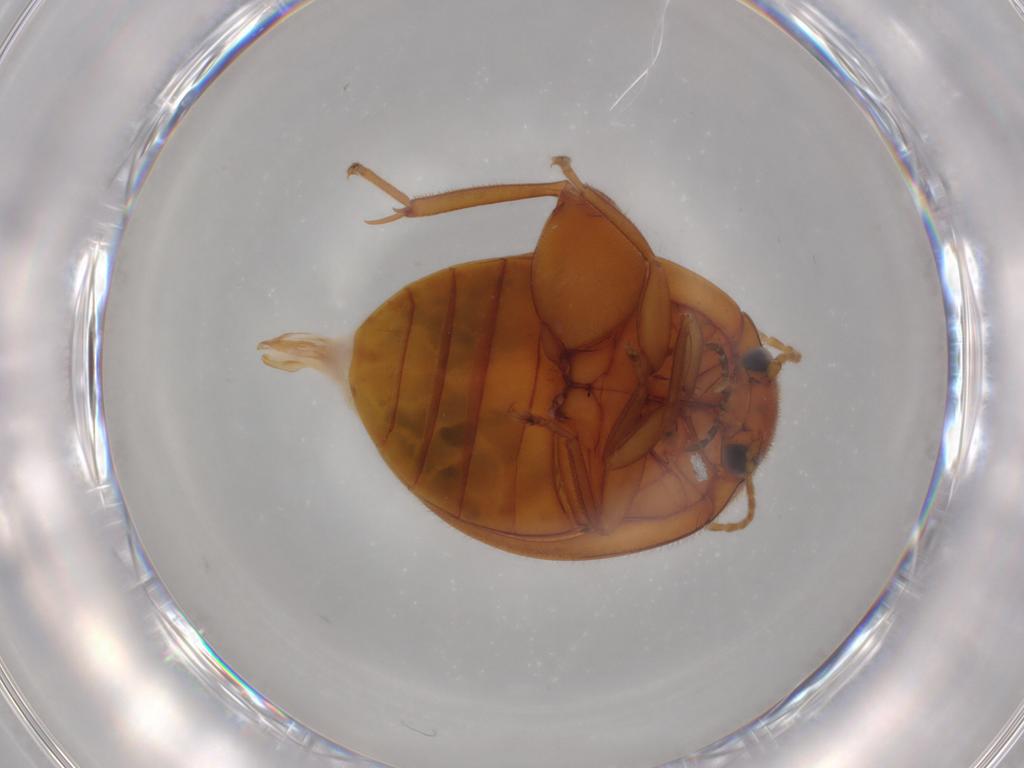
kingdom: Animalia
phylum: Arthropoda
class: Insecta
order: Coleoptera
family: Scirtidae
